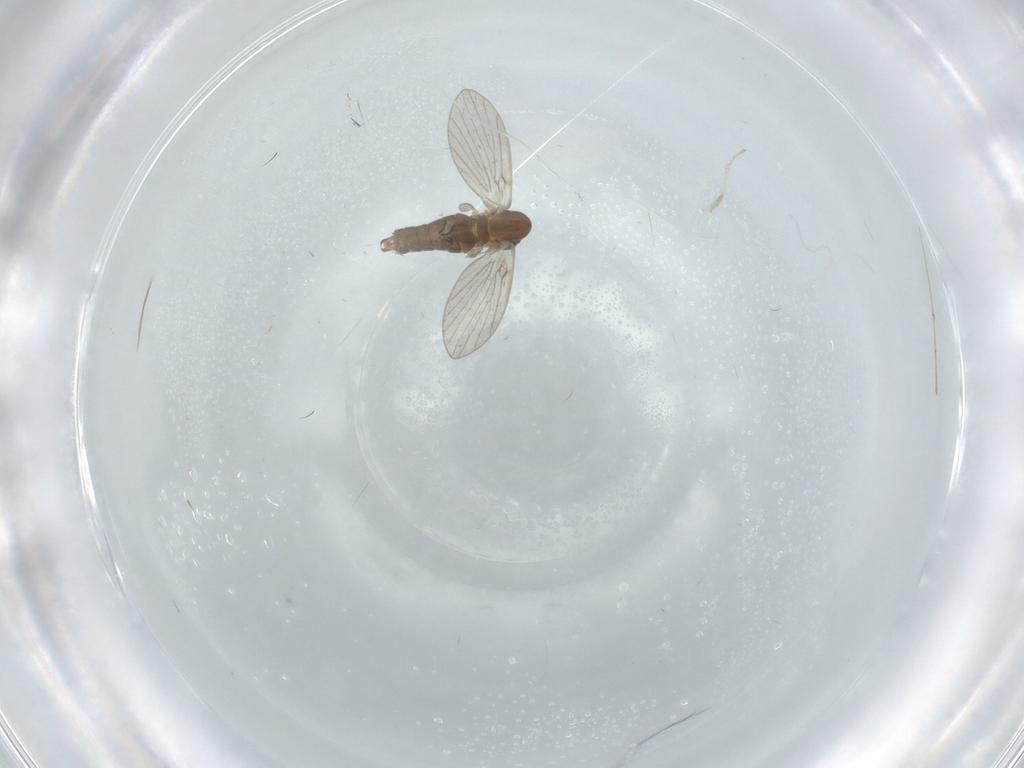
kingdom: Animalia
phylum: Arthropoda
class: Insecta
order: Diptera
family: Cecidomyiidae
